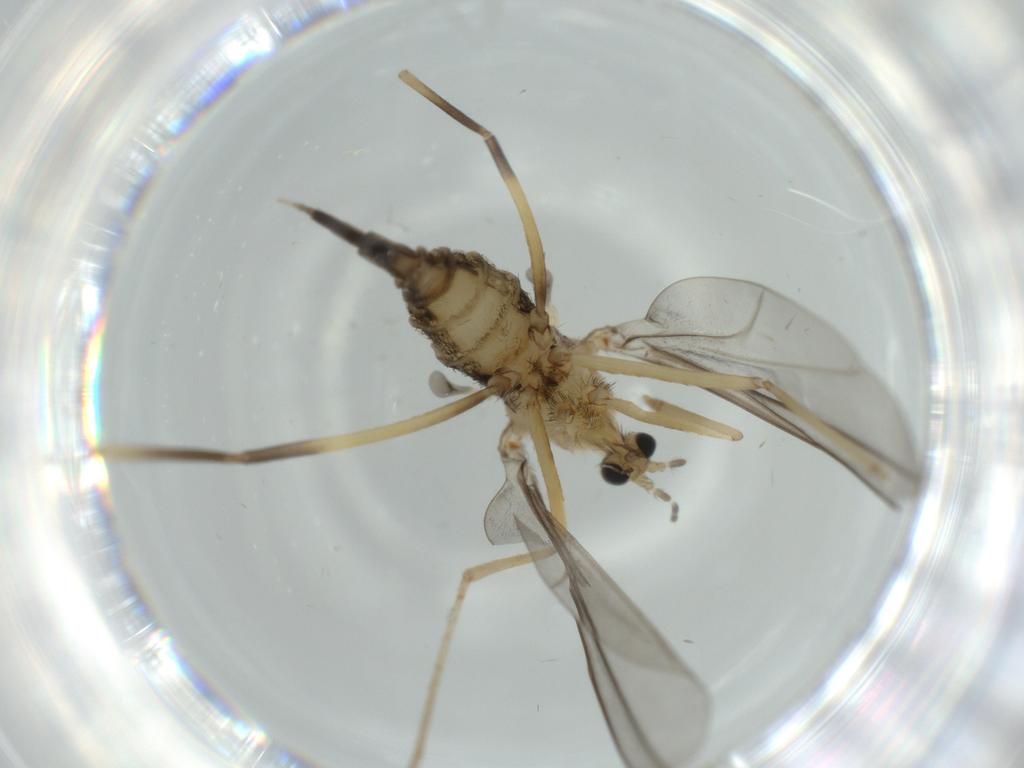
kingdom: Animalia
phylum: Arthropoda
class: Insecta
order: Diptera
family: Cecidomyiidae
